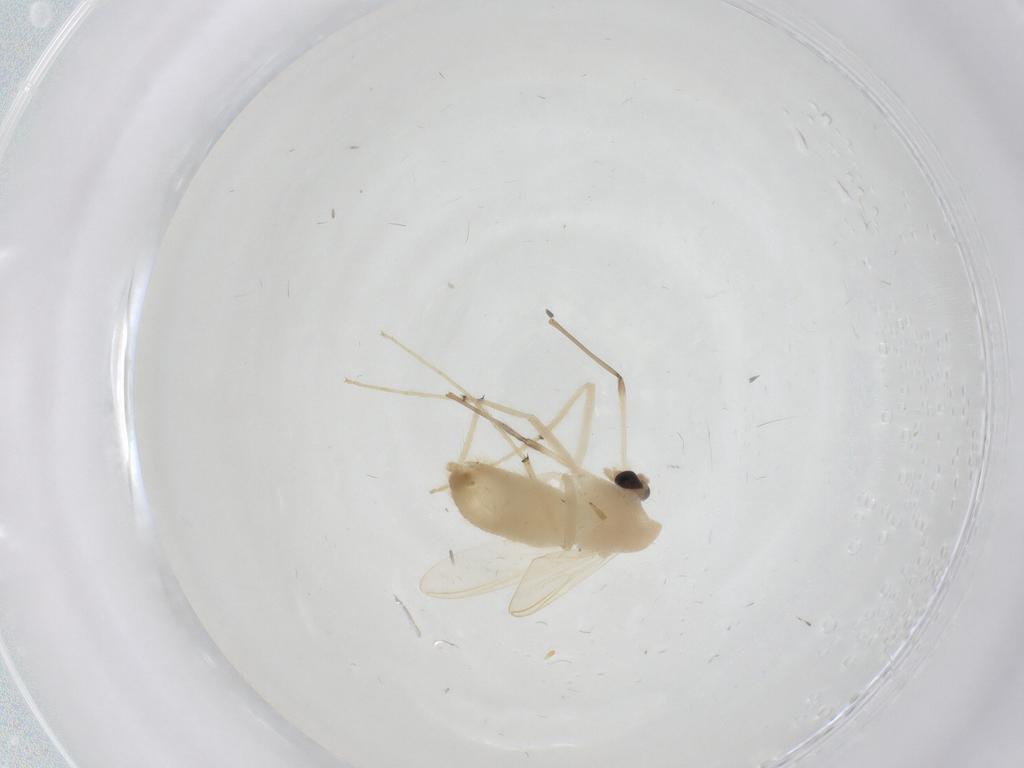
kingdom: Animalia
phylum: Arthropoda
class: Insecta
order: Diptera
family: Chironomidae
